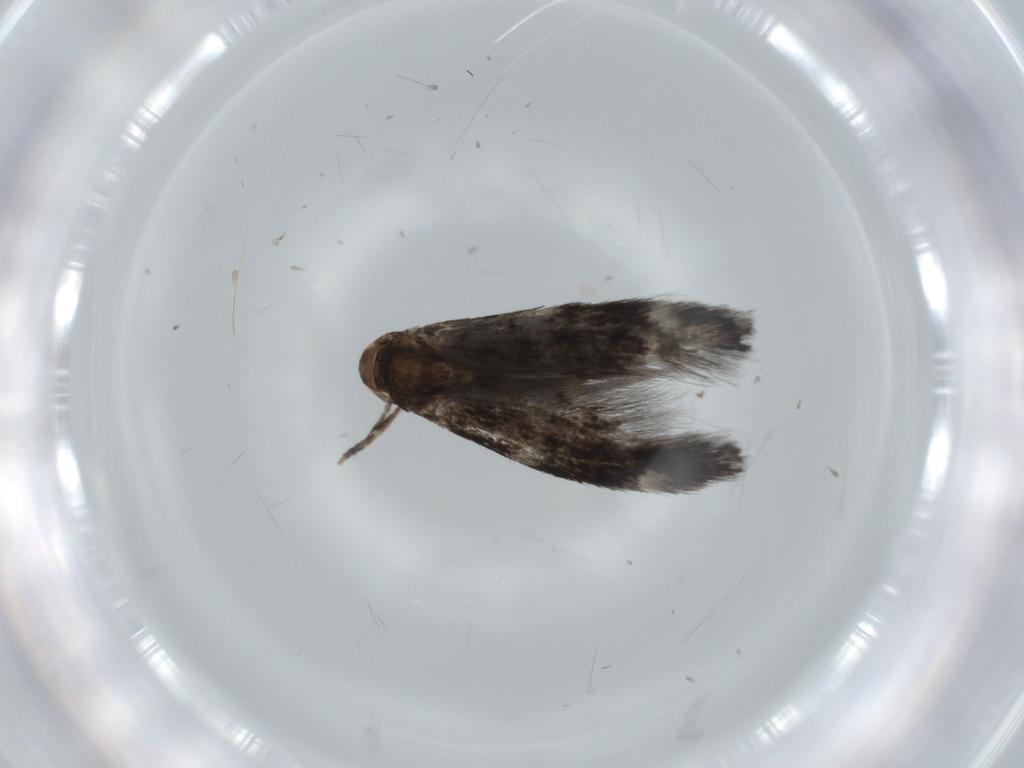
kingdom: Animalia
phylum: Arthropoda
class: Insecta
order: Lepidoptera
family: Elachistidae
